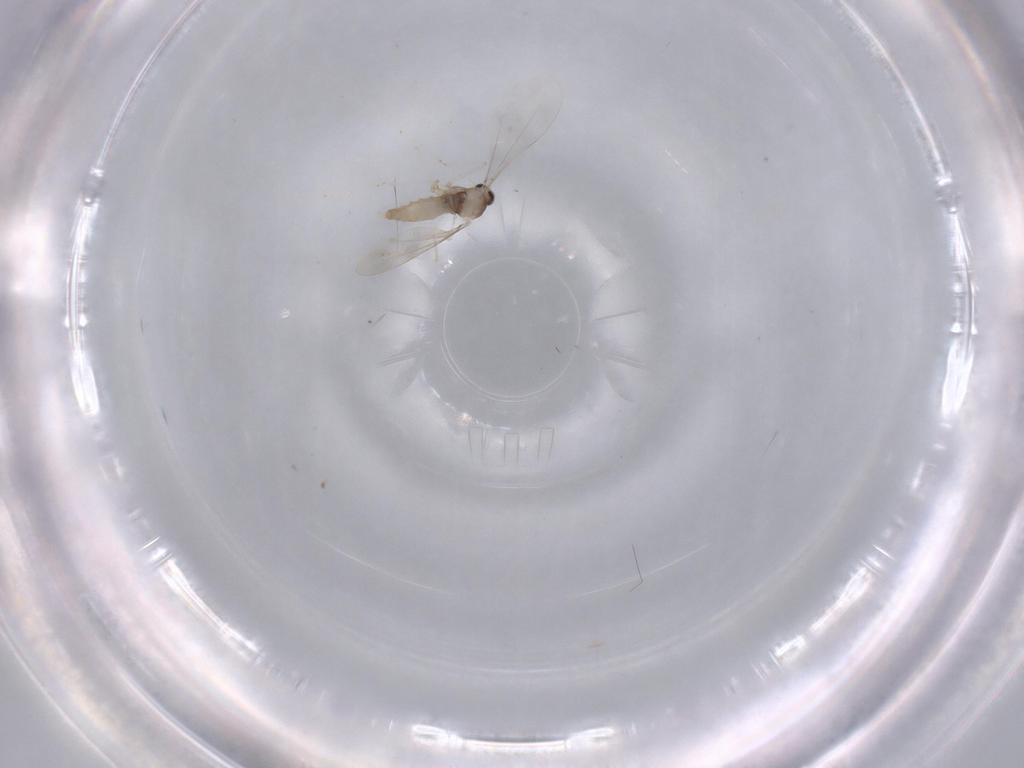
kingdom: Animalia
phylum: Arthropoda
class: Insecta
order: Diptera
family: Cecidomyiidae
